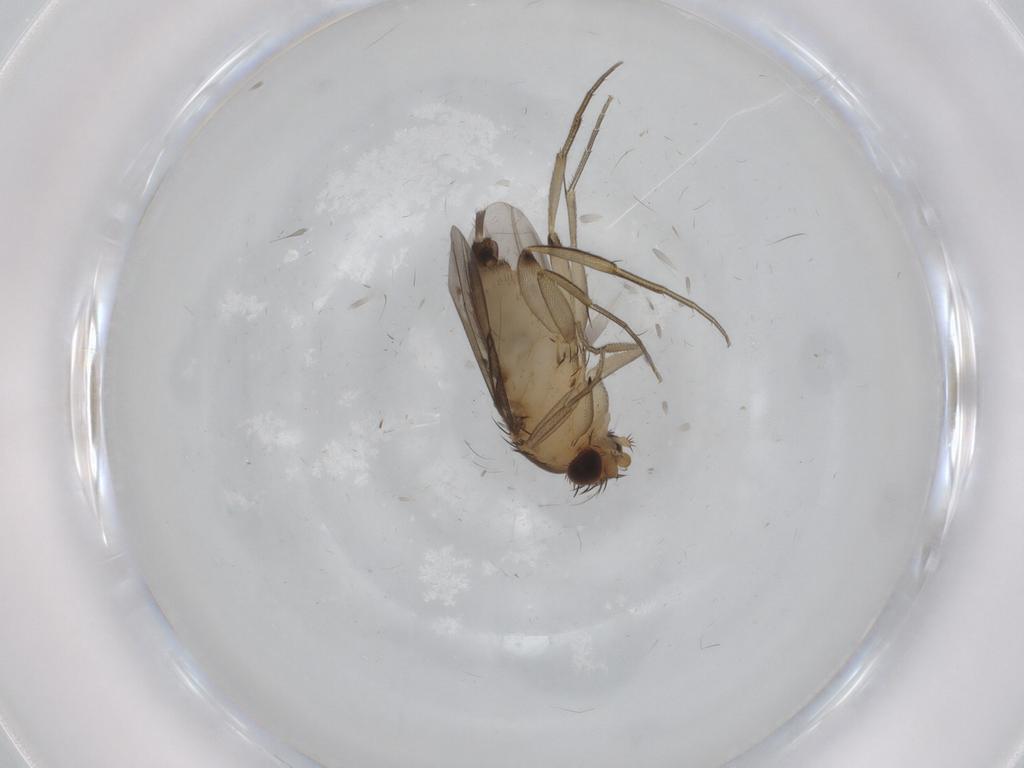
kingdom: Animalia
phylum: Arthropoda
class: Insecta
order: Diptera
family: Phoridae
